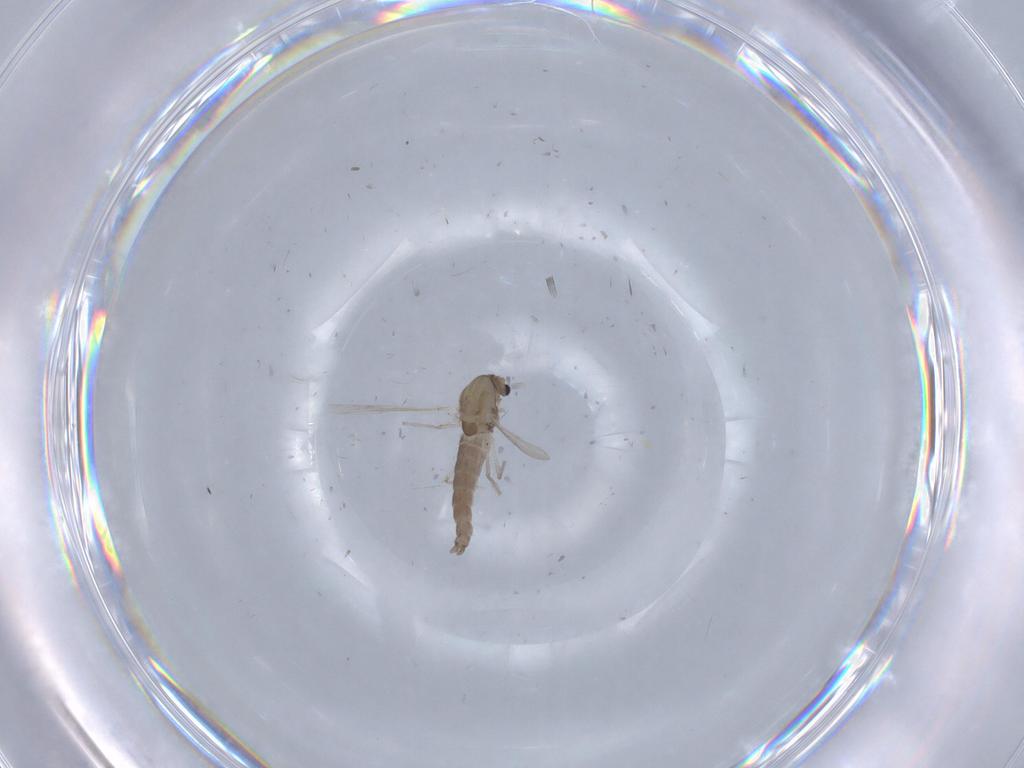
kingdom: Animalia
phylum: Arthropoda
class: Insecta
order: Diptera
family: Chironomidae
